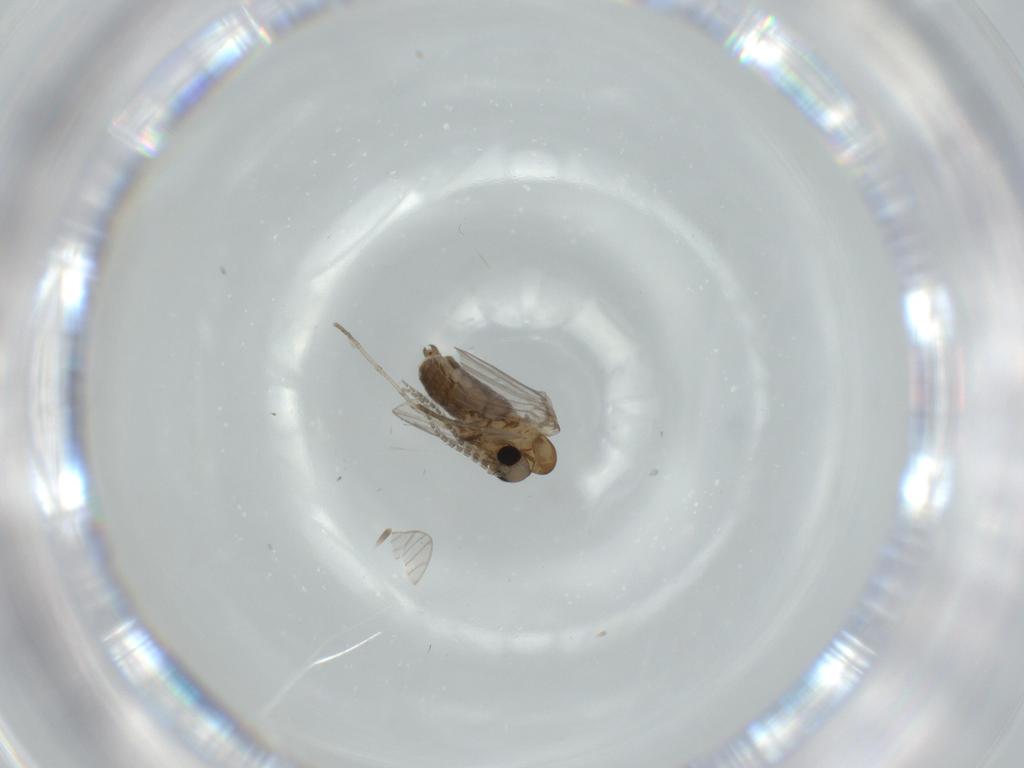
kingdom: Animalia
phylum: Arthropoda
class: Insecta
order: Diptera
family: Psychodidae
